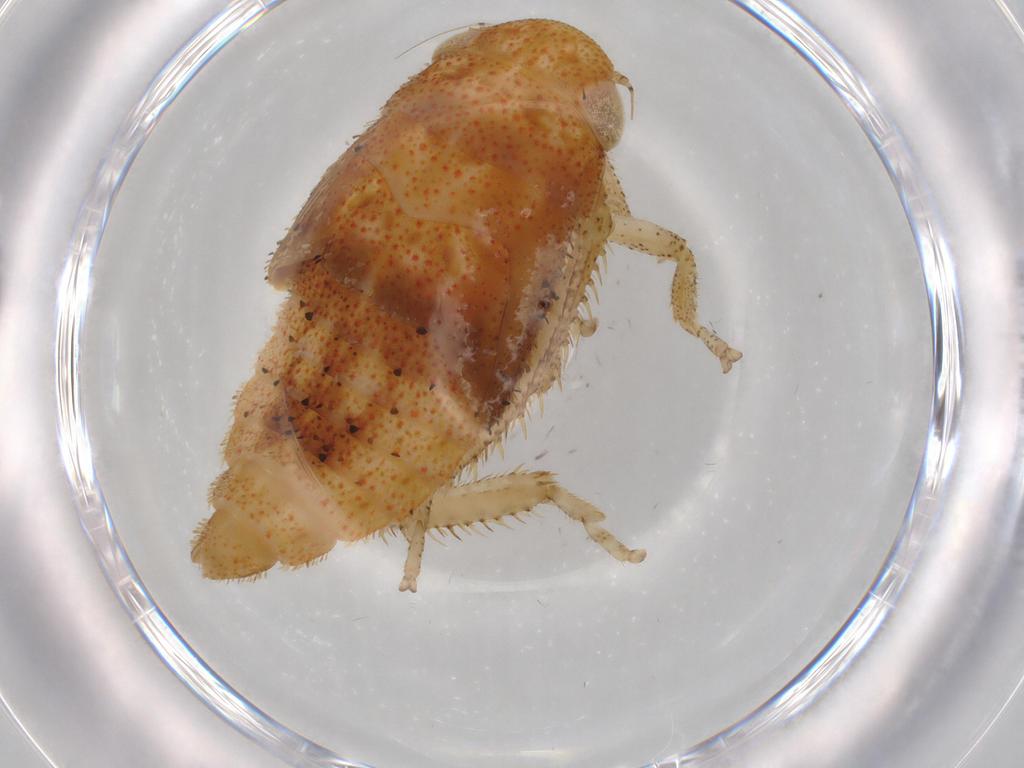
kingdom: Animalia
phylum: Arthropoda
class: Insecta
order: Hemiptera
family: Cicadellidae
